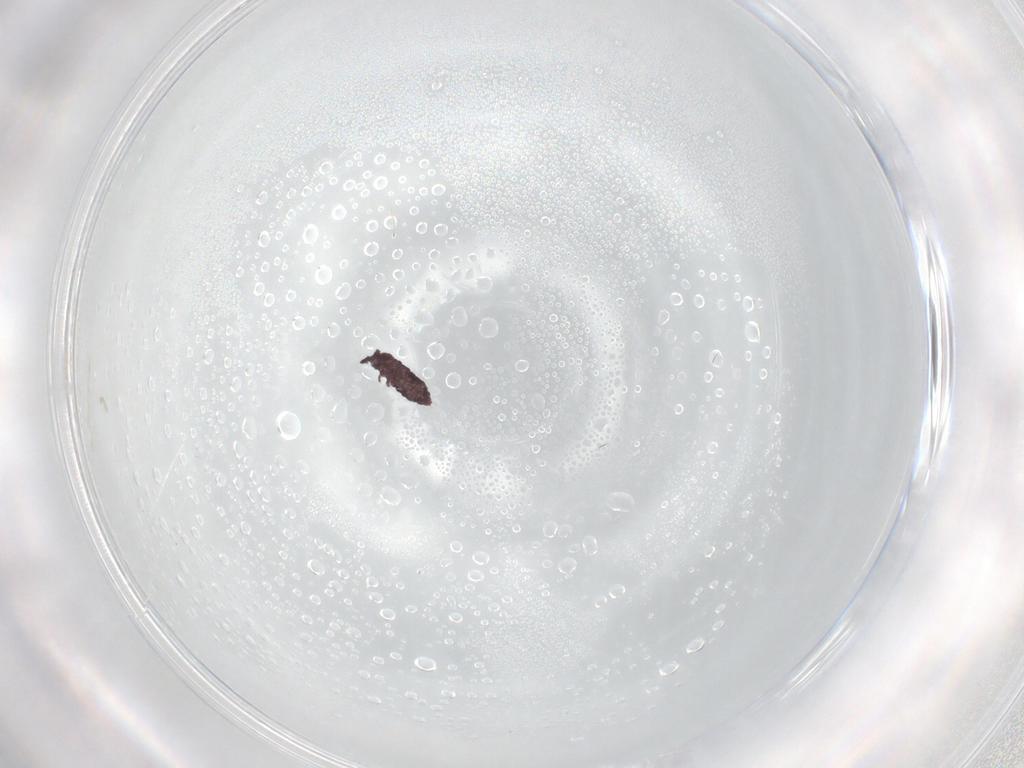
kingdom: Animalia
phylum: Arthropoda
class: Collembola
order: Poduromorpha
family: Hypogastruridae
